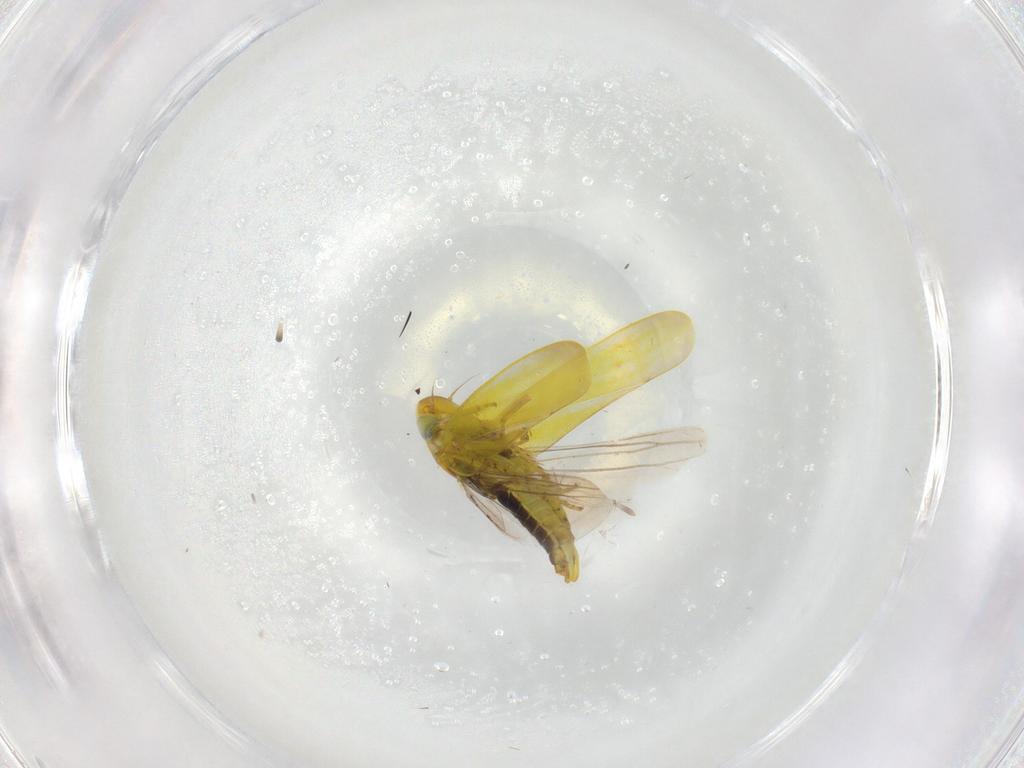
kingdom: Animalia
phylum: Arthropoda
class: Insecta
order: Hemiptera
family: Cicadellidae
